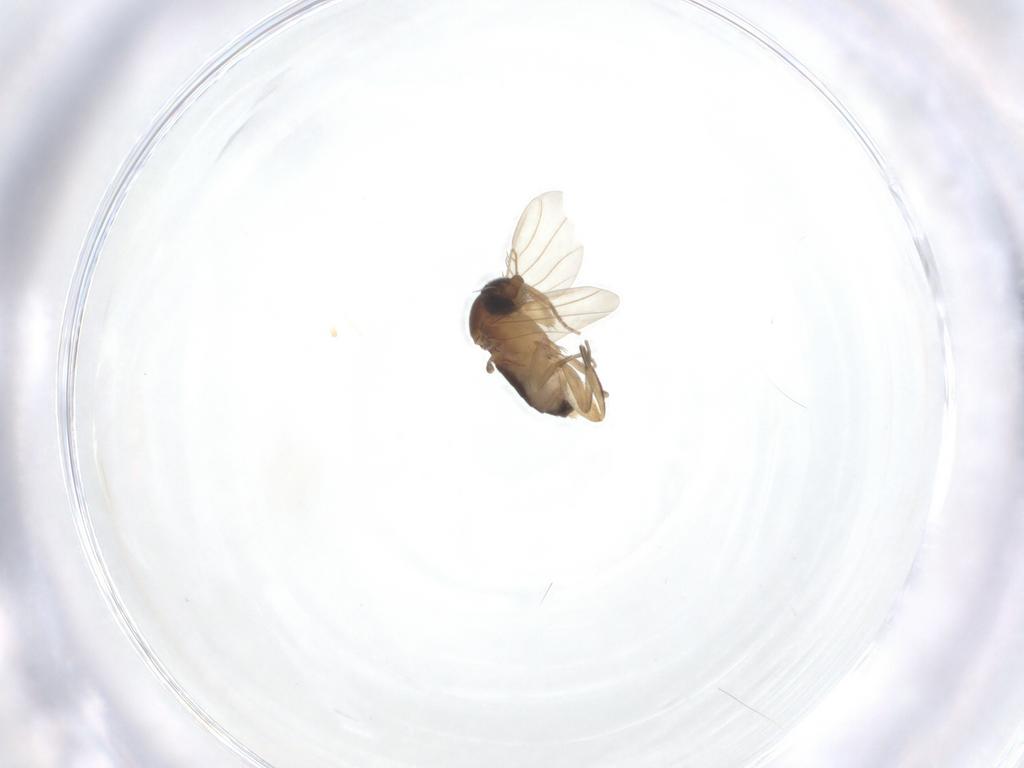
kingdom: Animalia
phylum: Arthropoda
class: Insecta
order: Diptera
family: Phoridae
